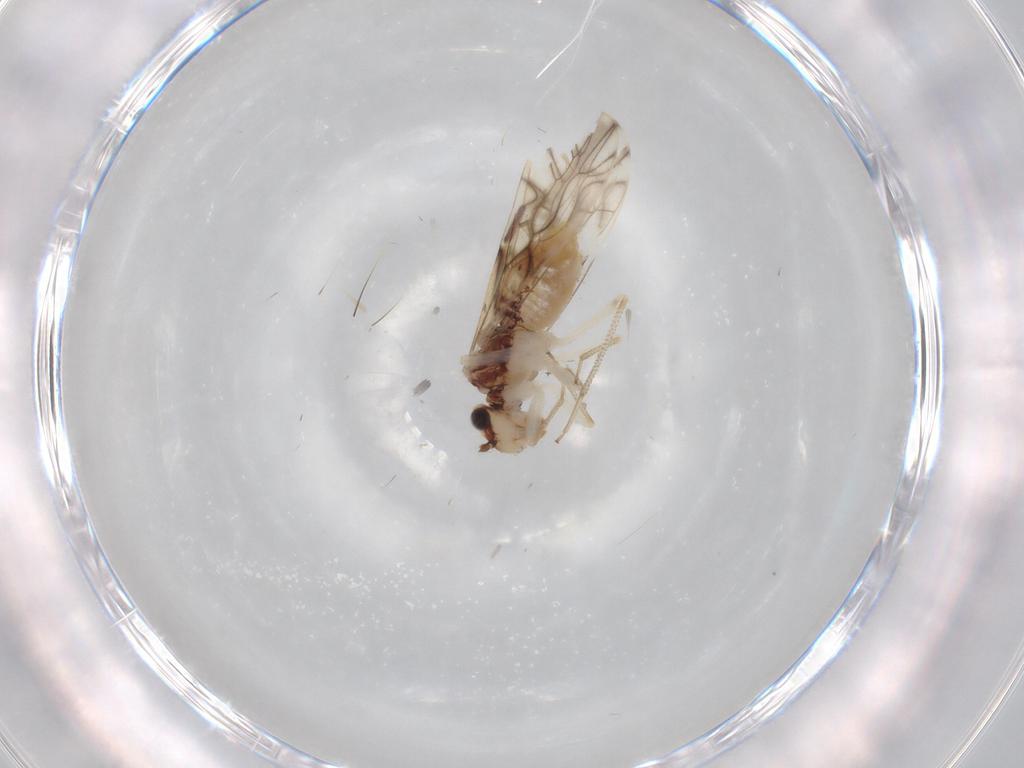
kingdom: Animalia
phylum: Arthropoda
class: Insecta
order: Psocodea
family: Caeciliusidae
